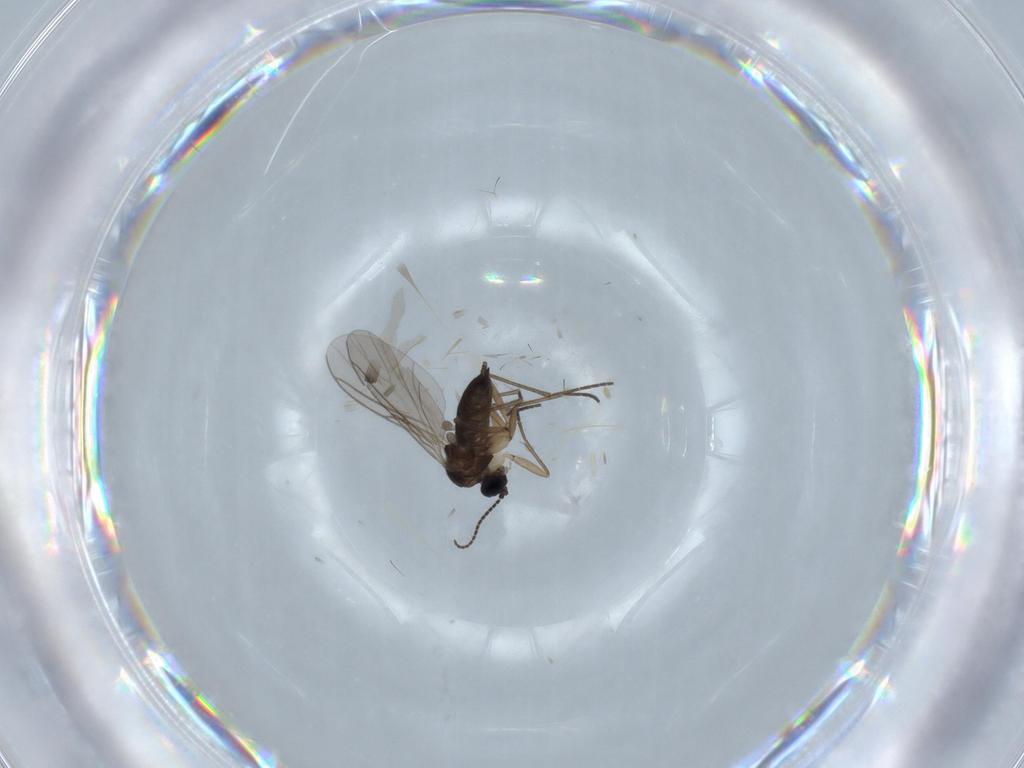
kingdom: Animalia
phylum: Arthropoda
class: Insecta
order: Diptera
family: Sciaridae
